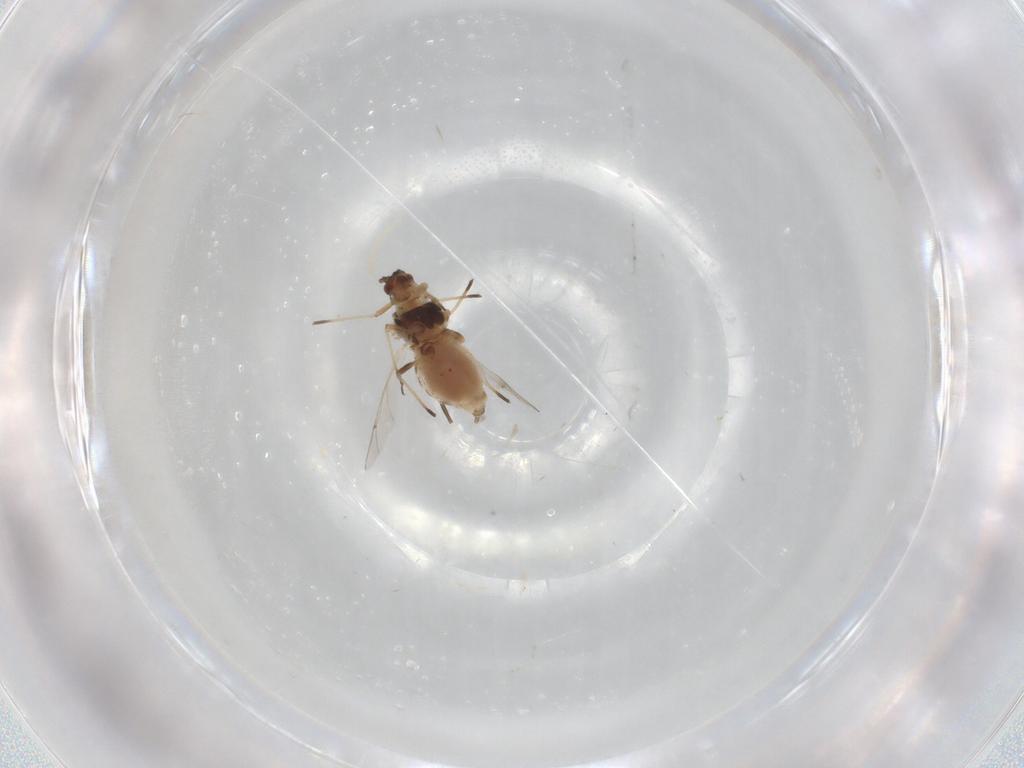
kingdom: Animalia
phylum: Arthropoda
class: Insecta
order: Hemiptera
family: Aphididae
